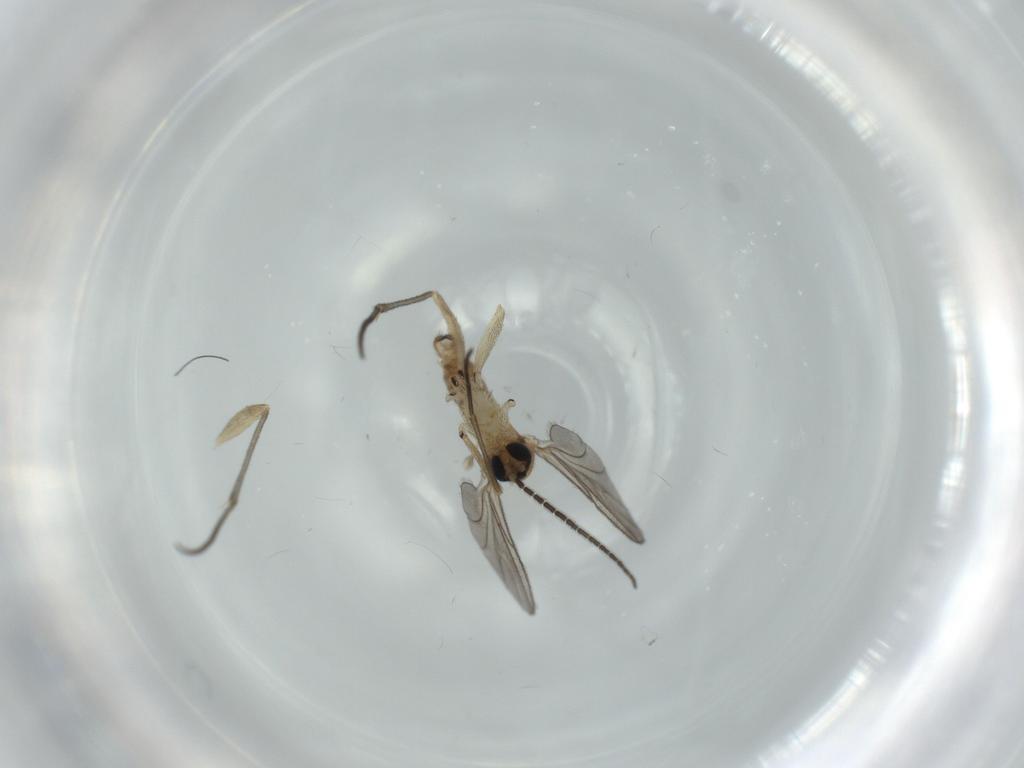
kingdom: Animalia
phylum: Arthropoda
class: Insecta
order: Diptera
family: Sciaridae
